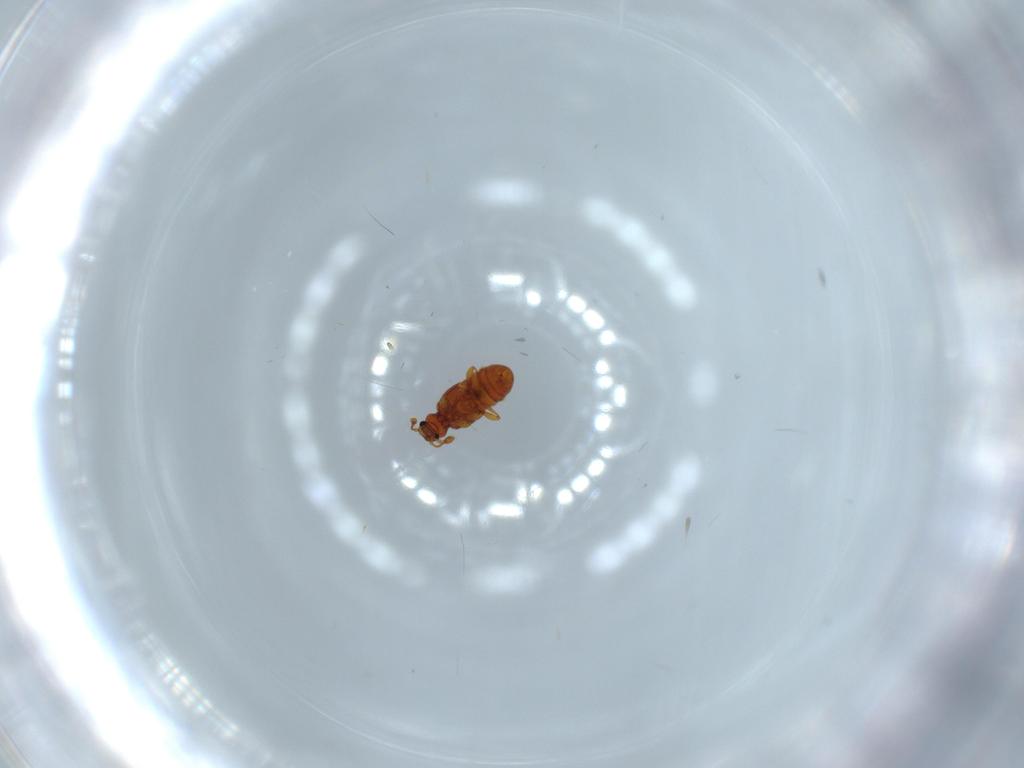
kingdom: Animalia
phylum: Arthropoda
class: Insecta
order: Coleoptera
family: Staphylinidae
